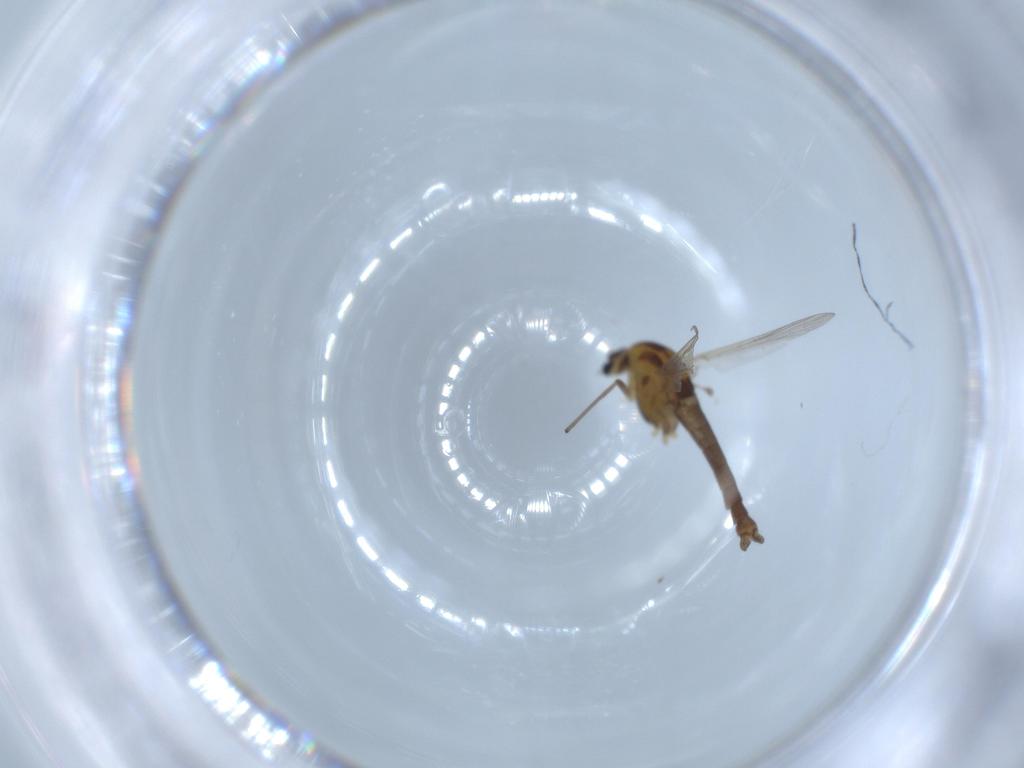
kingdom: Animalia
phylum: Arthropoda
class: Insecta
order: Diptera
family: Chironomidae
